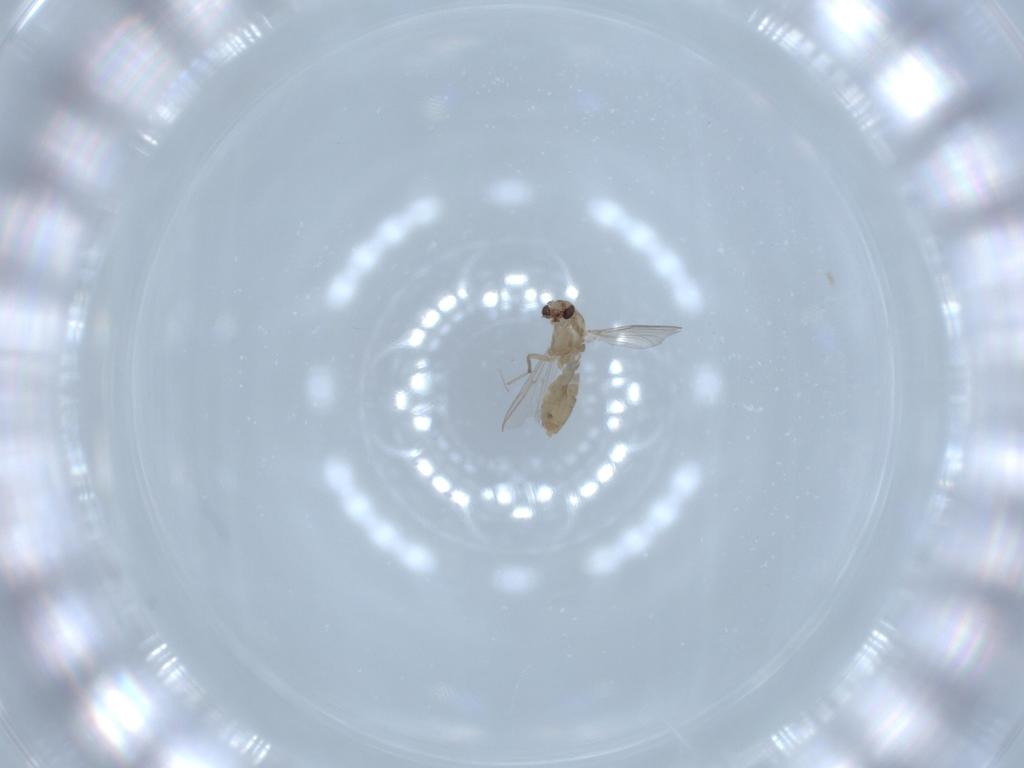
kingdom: Animalia
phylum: Arthropoda
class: Insecta
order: Diptera
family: Chironomidae
